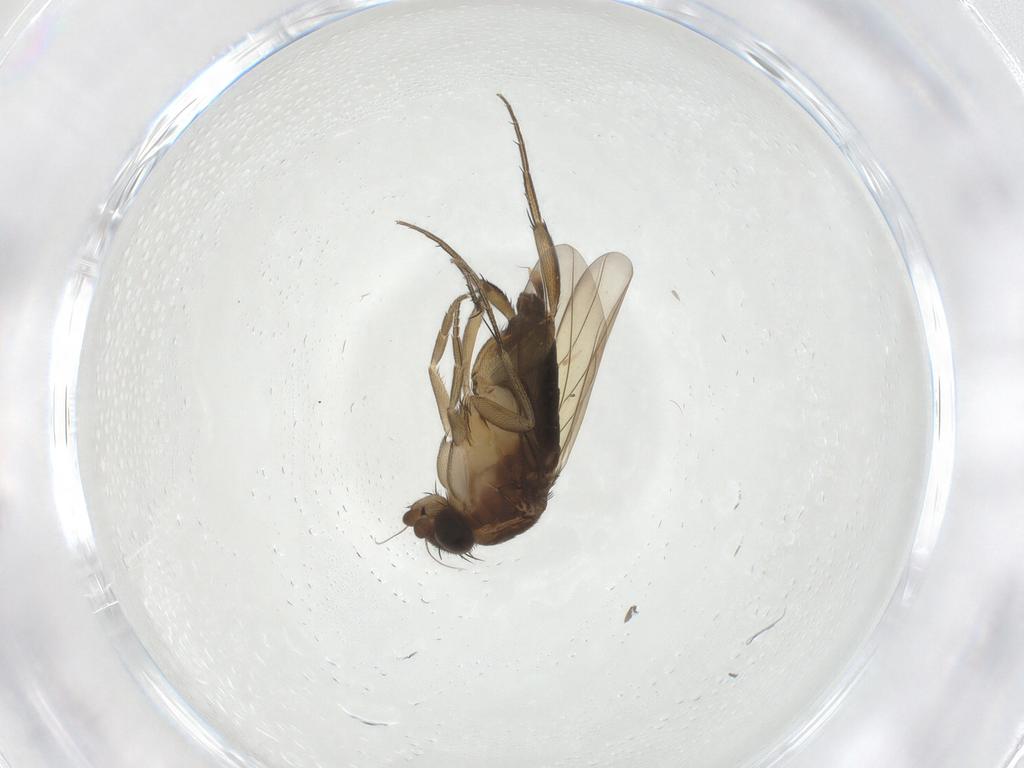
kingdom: Animalia
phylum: Arthropoda
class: Insecta
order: Diptera
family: Phoridae
